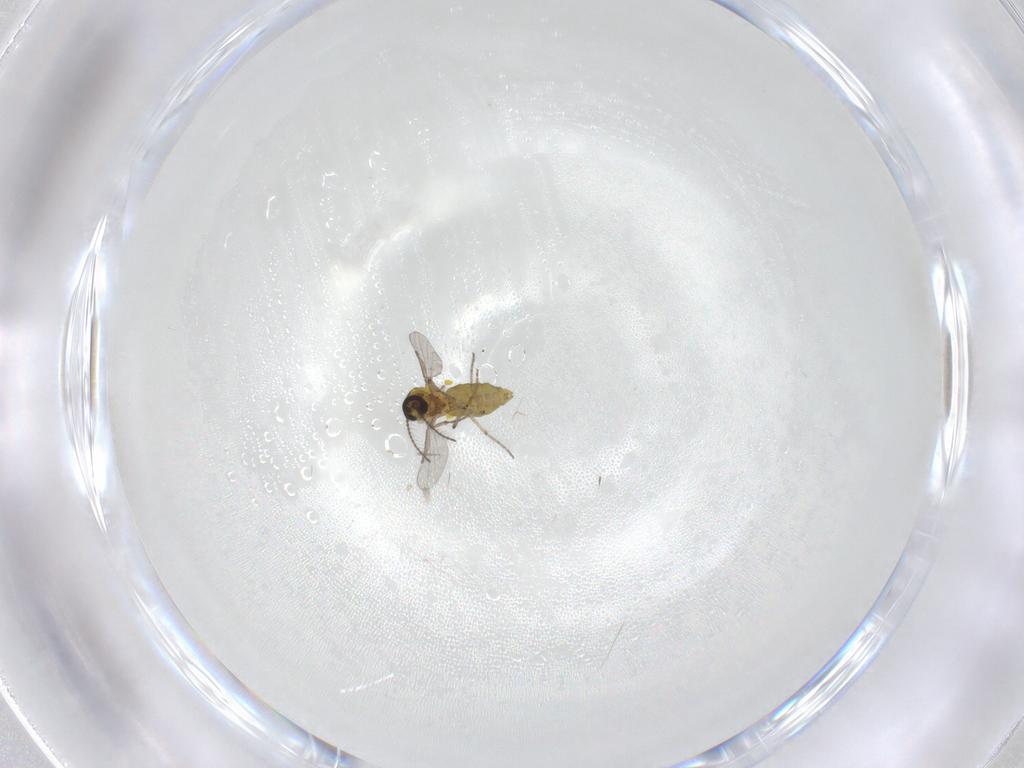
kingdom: Animalia
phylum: Arthropoda
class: Insecta
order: Diptera
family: Ceratopogonidae
